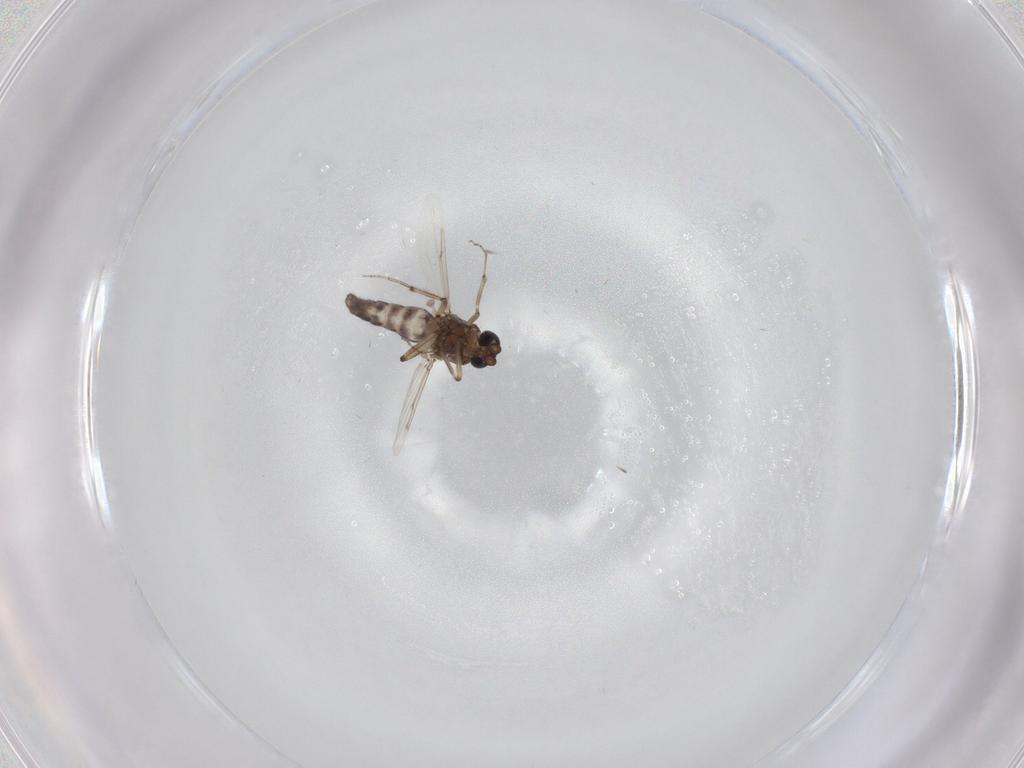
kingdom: Animalia
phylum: Arthropoda
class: Insecta
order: Diptera
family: Ceratopogonidae
